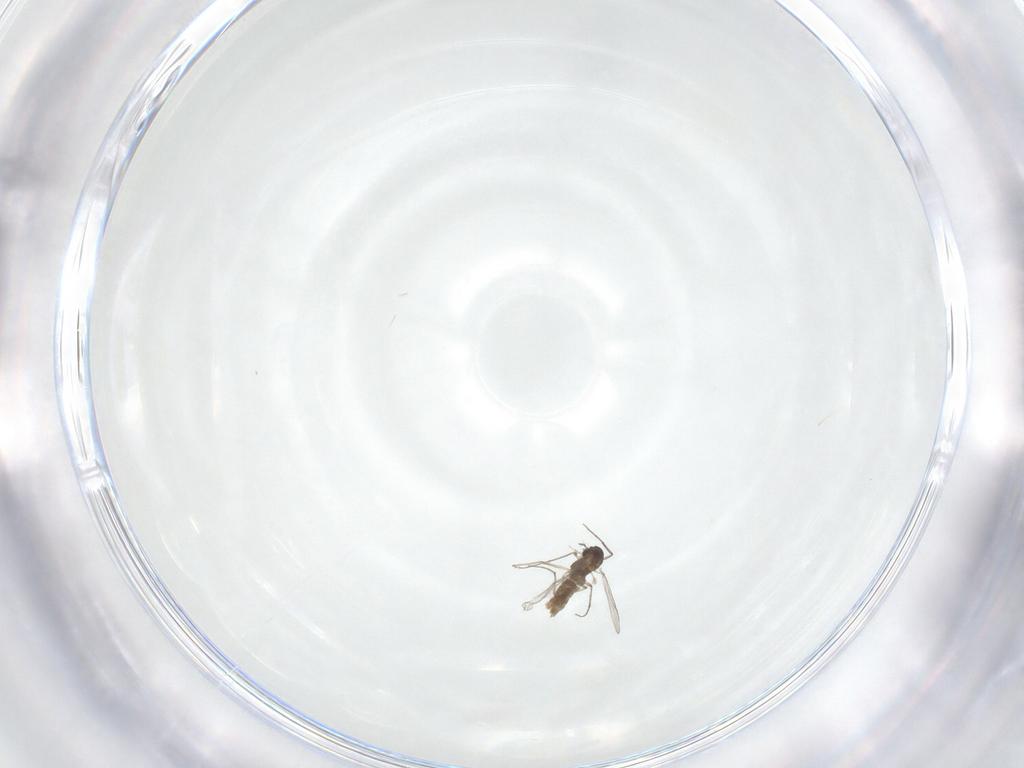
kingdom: Animalia
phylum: Arthropoda
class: Insecta
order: Diptera
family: Chironomidae
